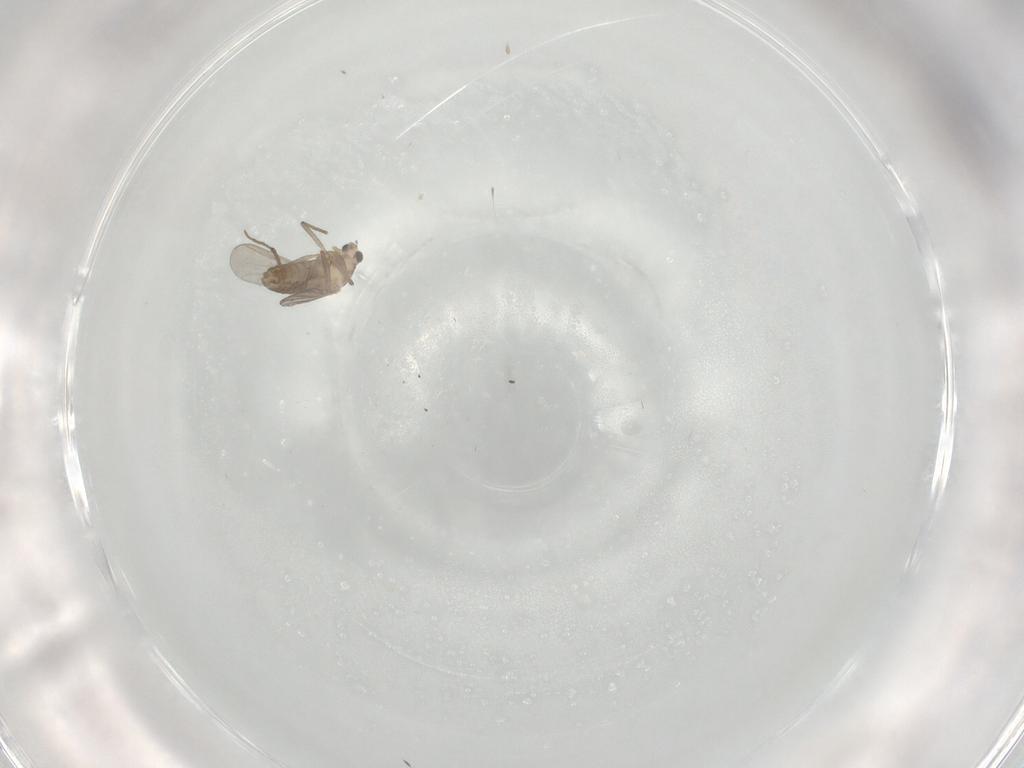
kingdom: Animalia
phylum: Arthropoda
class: Insecta
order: Diptera
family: Chironomidae
